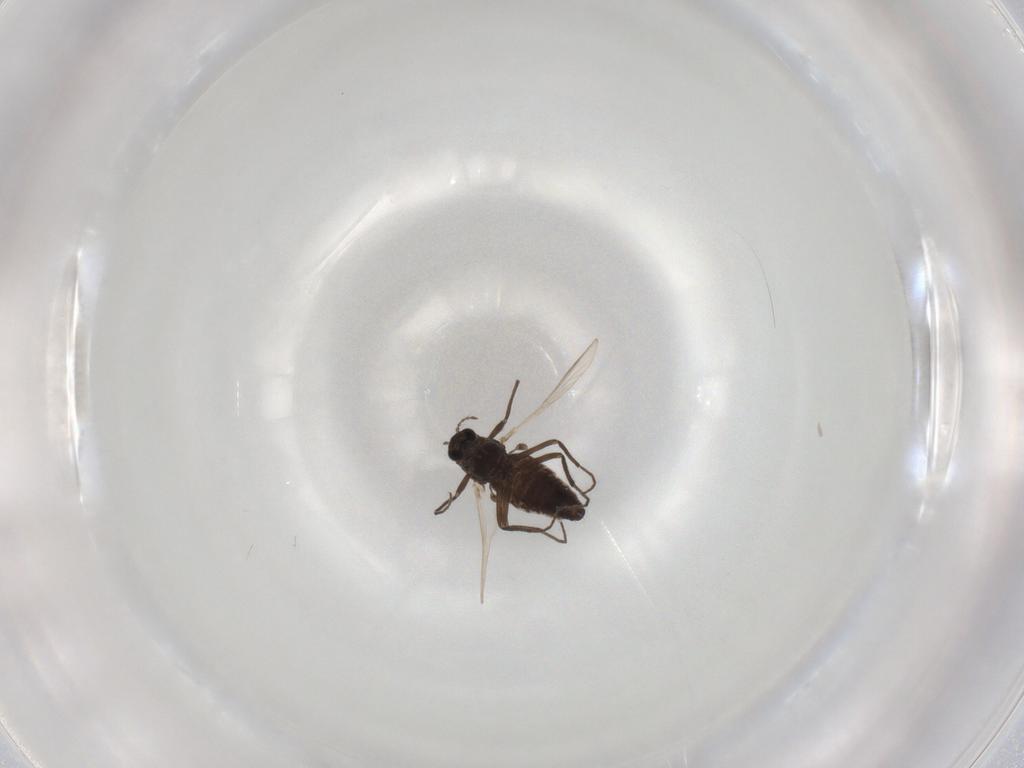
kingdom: Animalia
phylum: Arthropoda
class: Insecta
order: Diptera
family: Chironomidae
